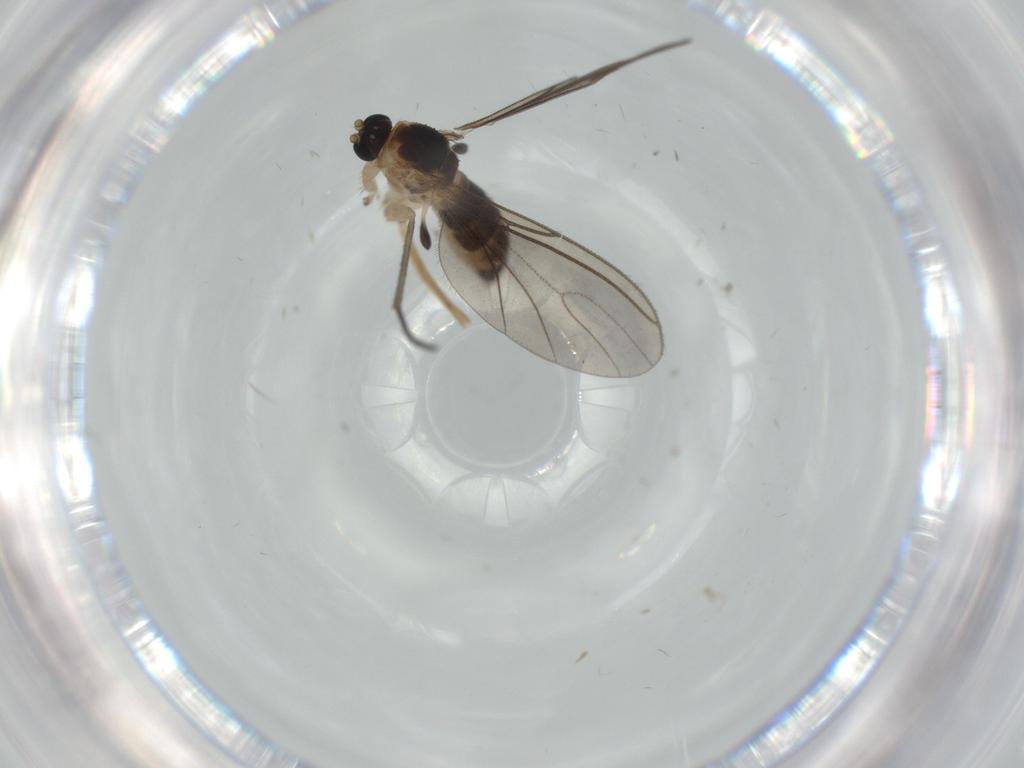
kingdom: Animalia
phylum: Arthropoda
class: Insecta
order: Diptera
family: Sciaridae
